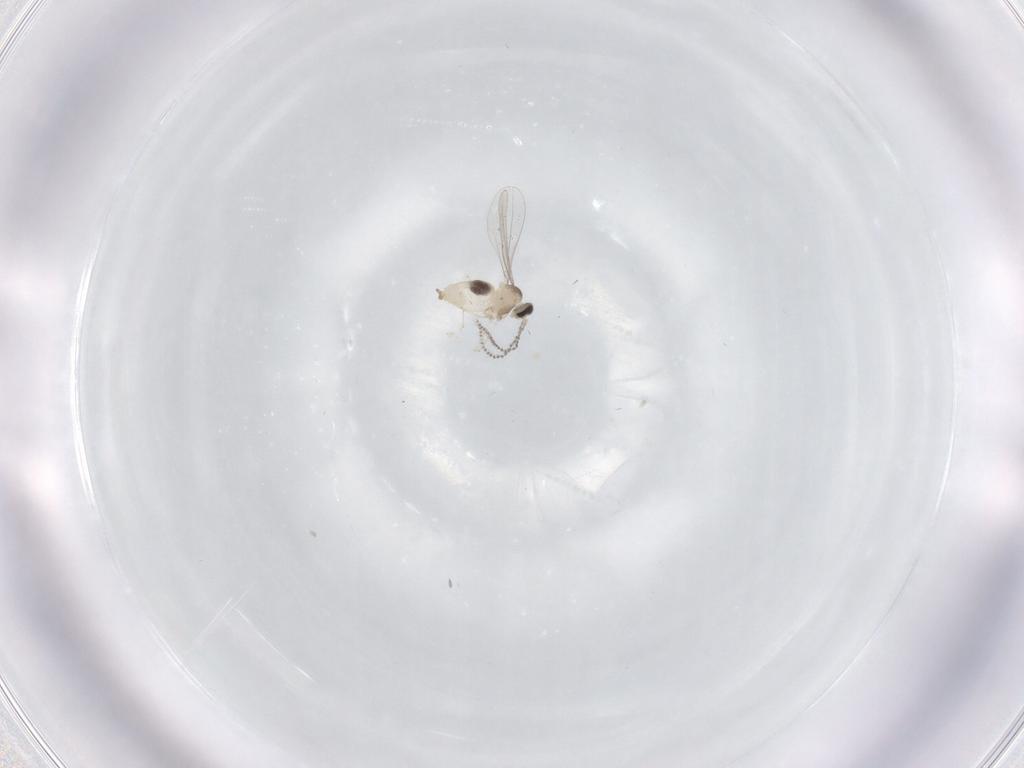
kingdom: Animalia
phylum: Arthropoda
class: Insecta
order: Diptera
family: Cecidomyiidae
